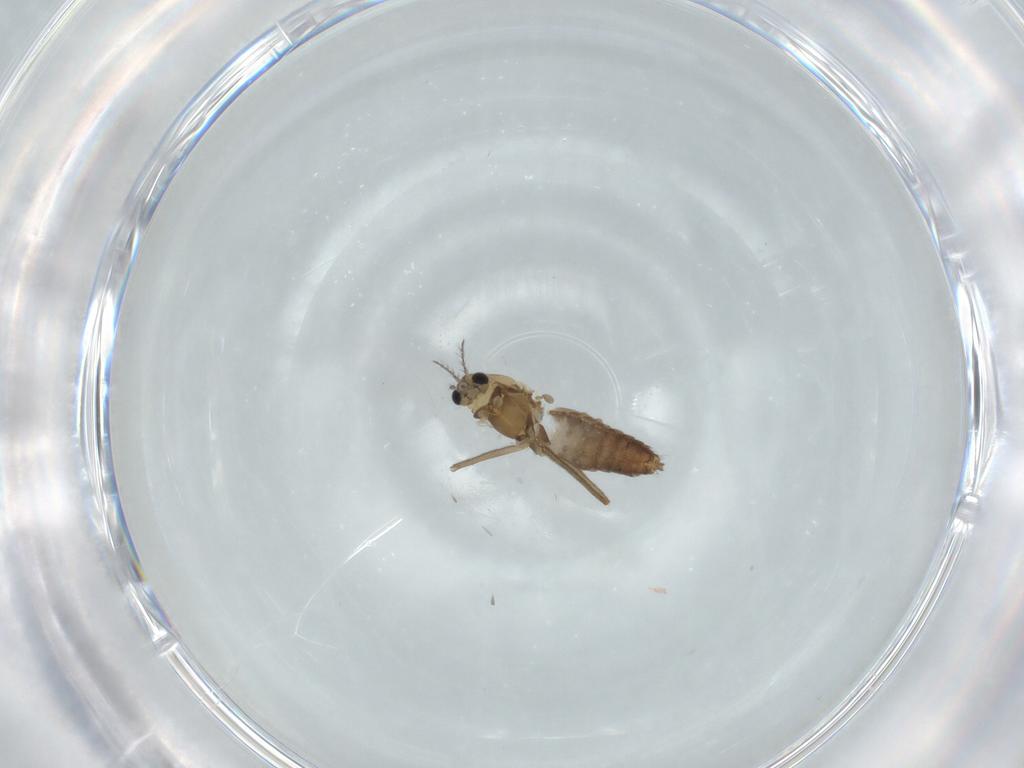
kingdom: Animalia
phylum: Arthropoda
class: Insecta
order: Diptera
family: Chironomidae
